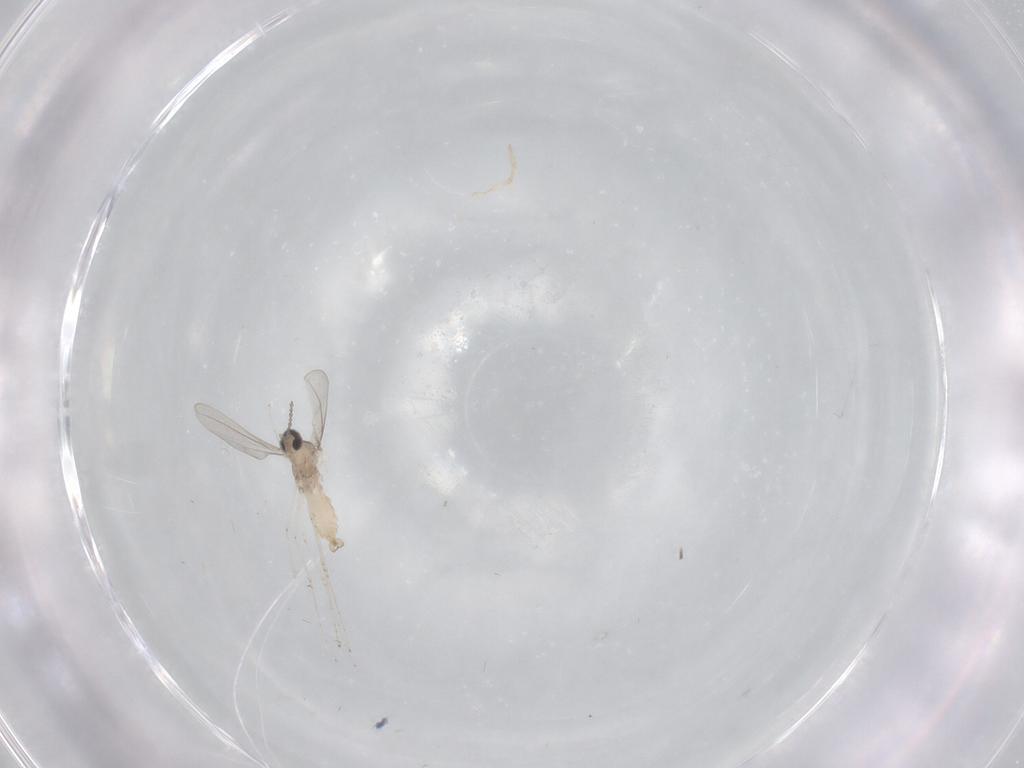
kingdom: Animalia
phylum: Arthropoda
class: Insecta
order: Diptera
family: Cecidomyiidae
